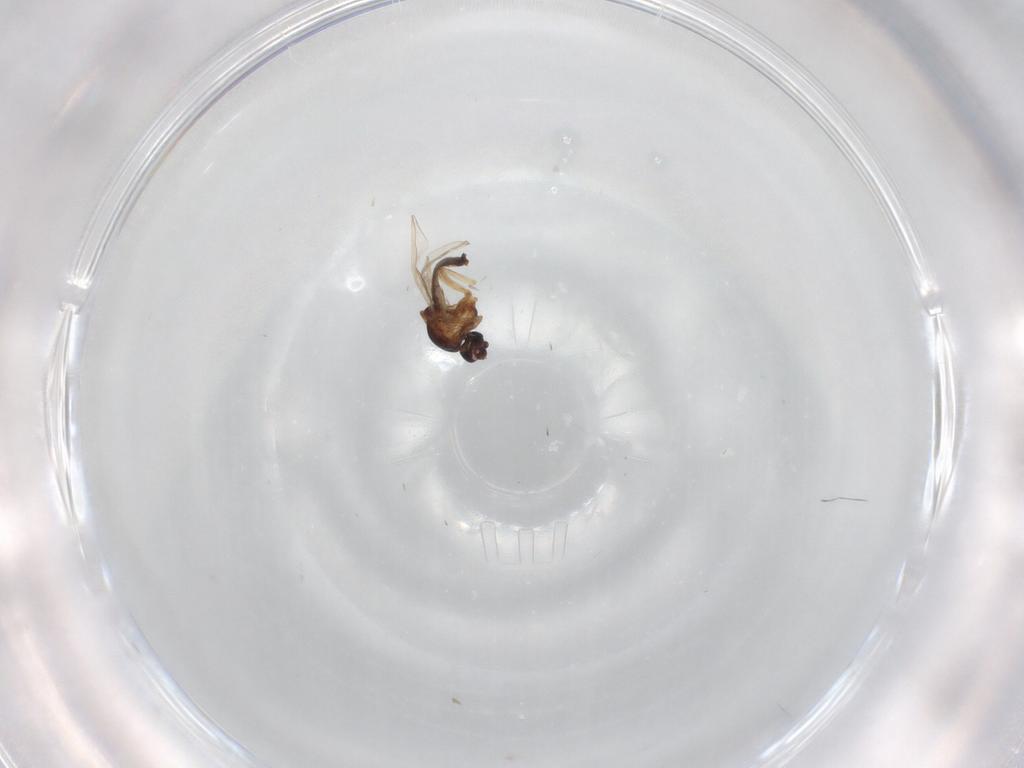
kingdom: Animalia
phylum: Arthropoda
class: Insecta
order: Diptera
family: Ceratopogonidae
